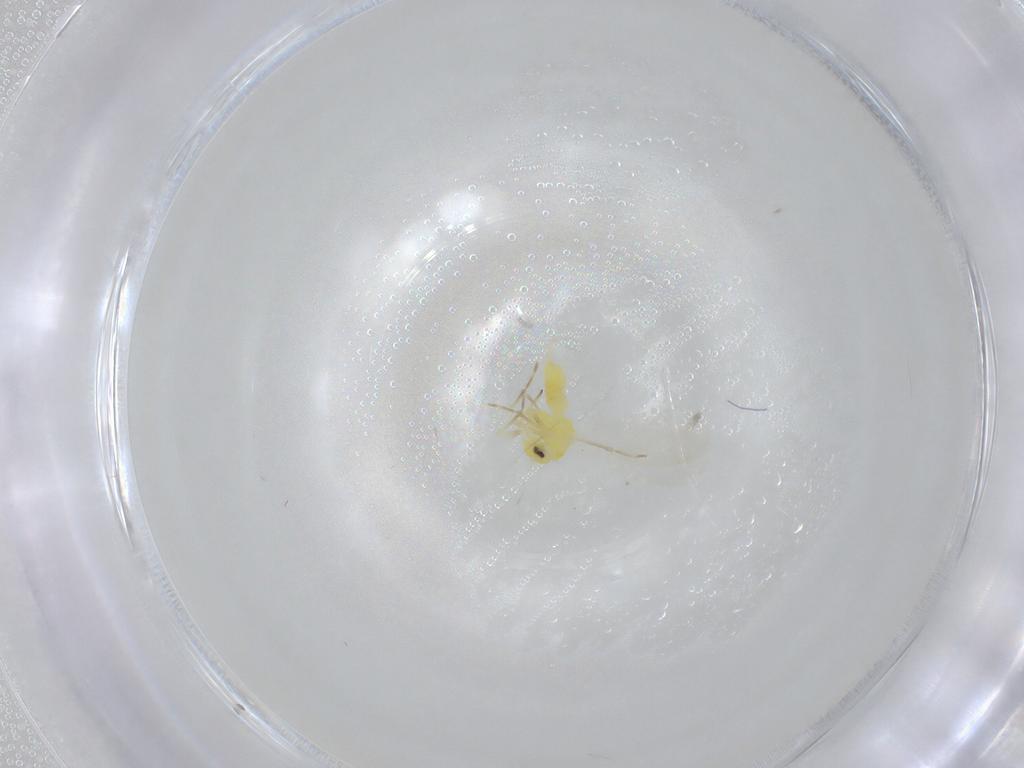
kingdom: Animalia
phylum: Arthropoda
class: Insecta
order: Hemiptera
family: Aleyrodidae
